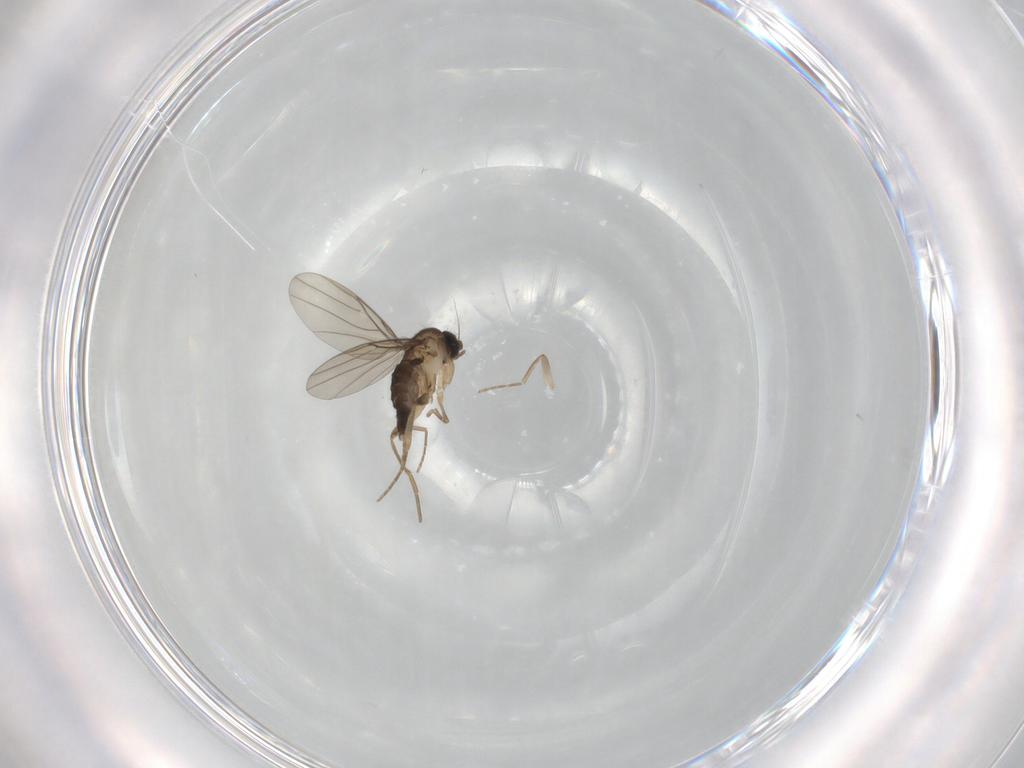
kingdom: Animalia
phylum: Arthropoda
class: Insecta
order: Diptera
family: Phoridae
